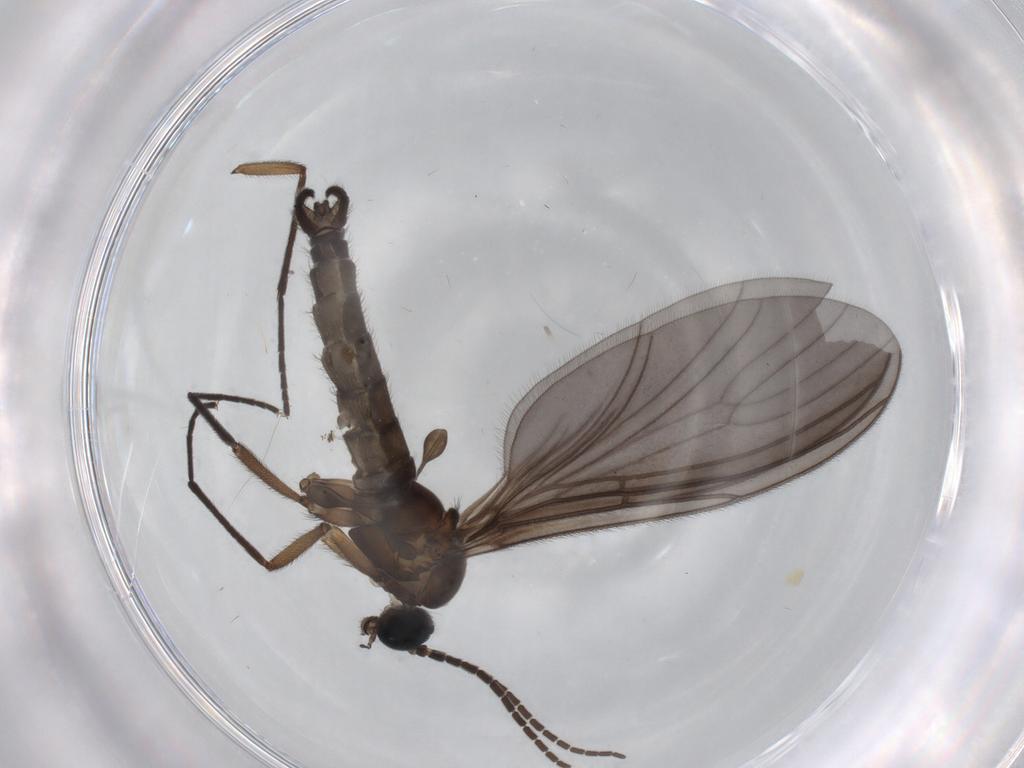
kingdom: Animalia
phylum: Arthropoda
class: Insecta
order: Diptera
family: Sciaridae
